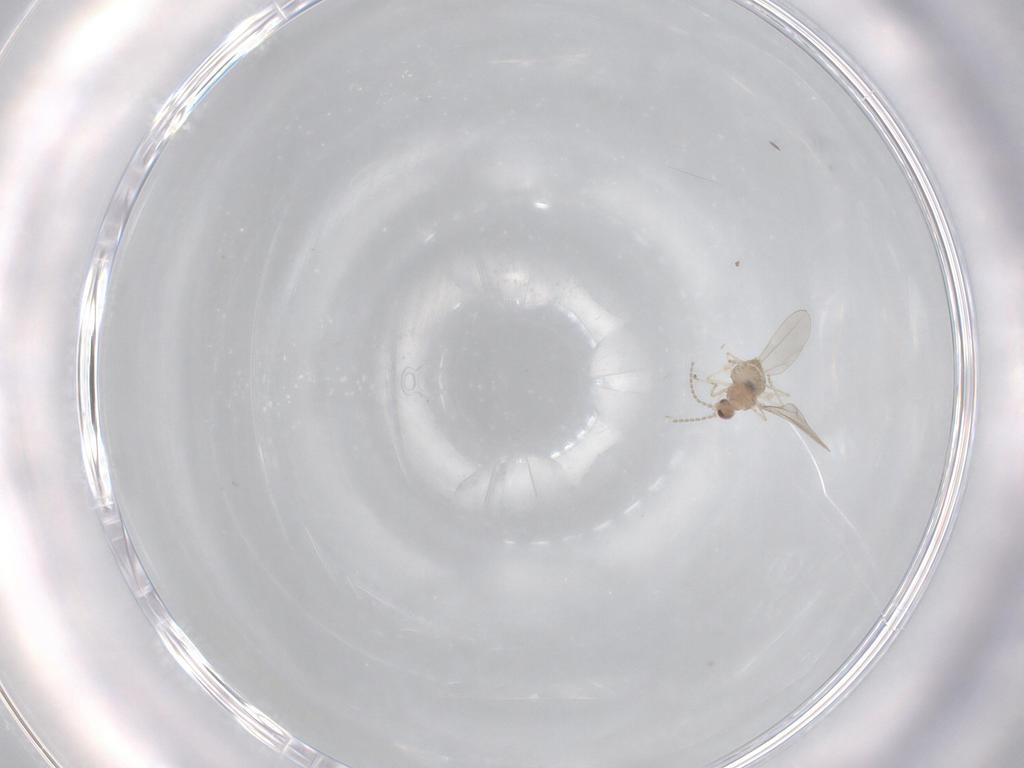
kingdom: Animalia
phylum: Arthropoda
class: Insecta
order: Diptera
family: Cecidomyiidae
